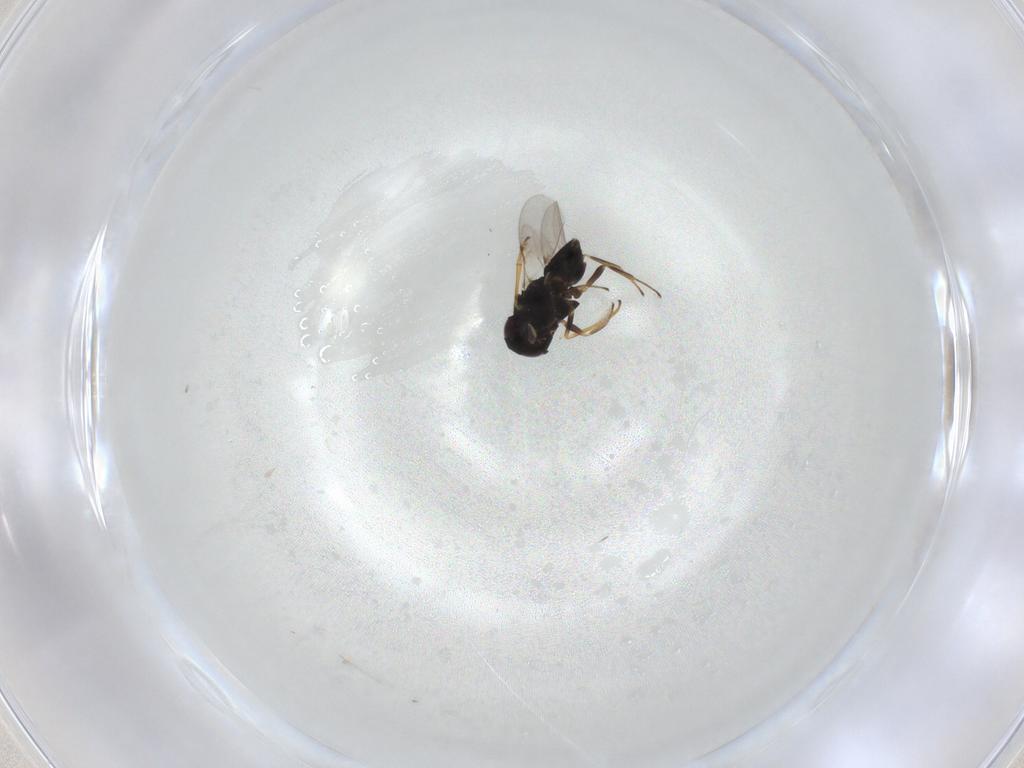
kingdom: Animalia
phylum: Arthropoda
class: Insecta
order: Hymenoptera
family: Encyrtidae
